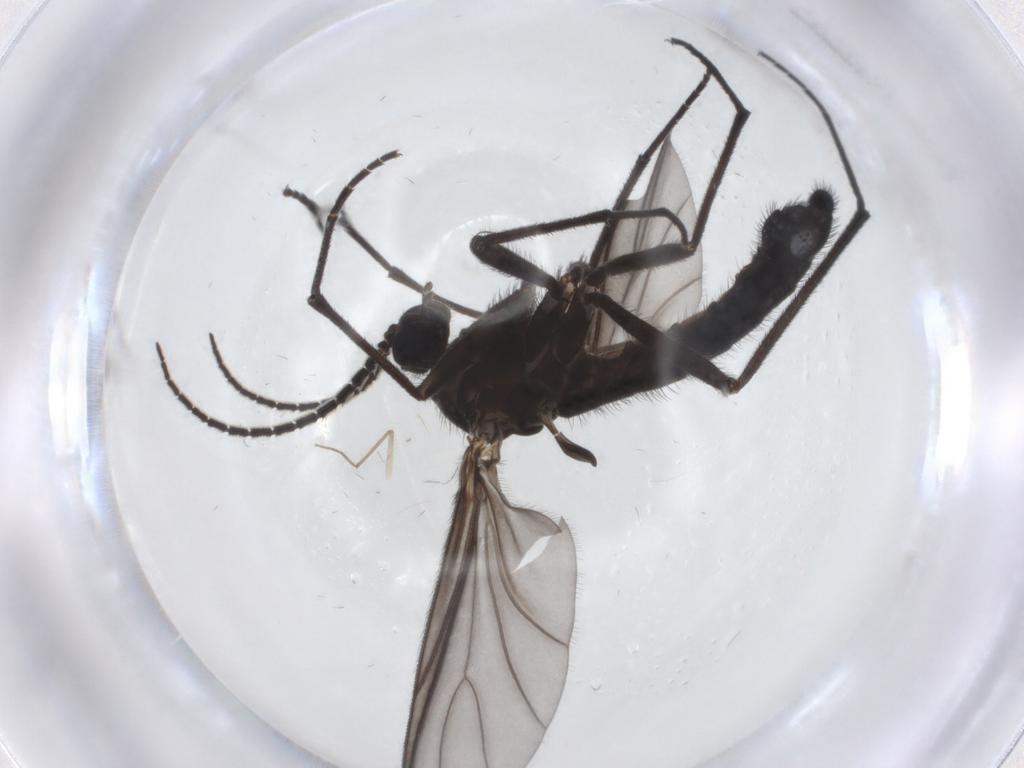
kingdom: Animalia
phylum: Arthropoda
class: Insecta
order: Diptera
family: Chironomidae
